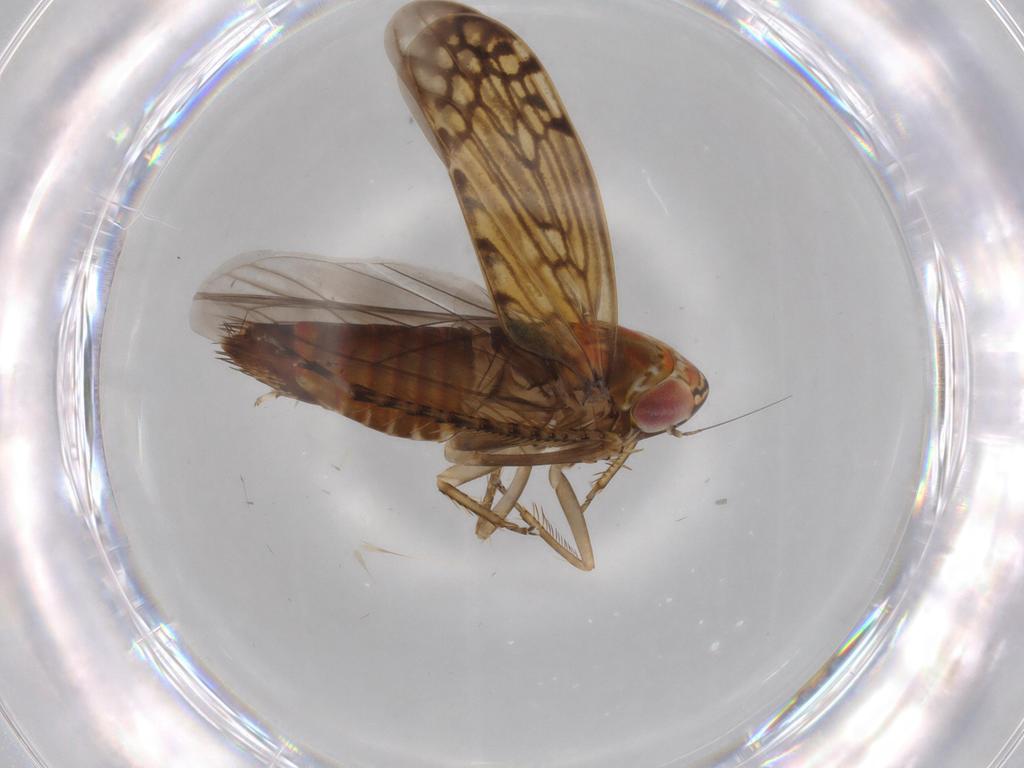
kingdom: Animalia
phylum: Arthropoda
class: Insecta
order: Hemiptera
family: Cicadellidae
